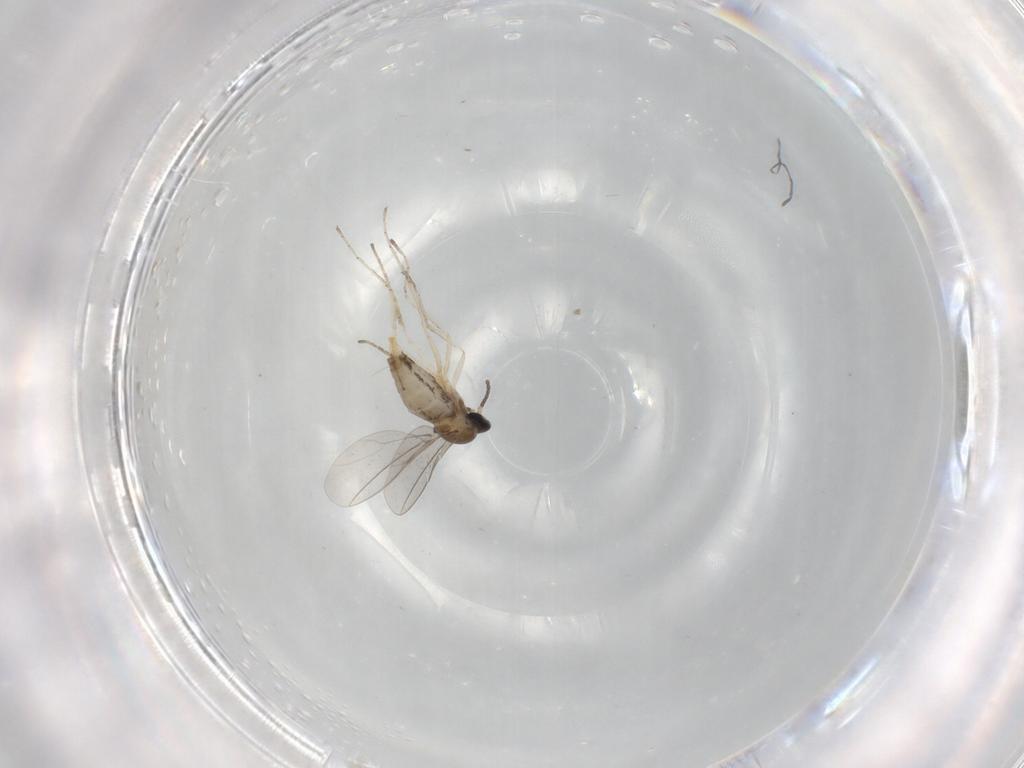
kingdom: Animalia
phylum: Arthropoda
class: Insecta
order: Diptera
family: Cecidomyiidae
